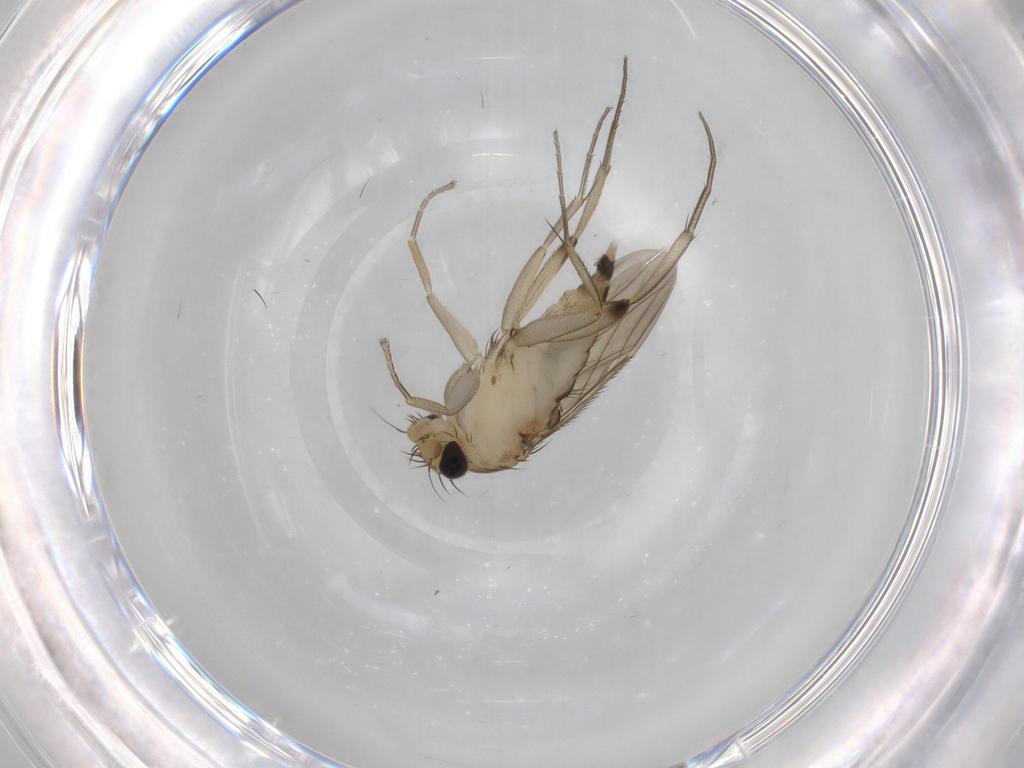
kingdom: Animalia
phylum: Arthropoda
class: Insecta
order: Diptera
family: Phoridae
